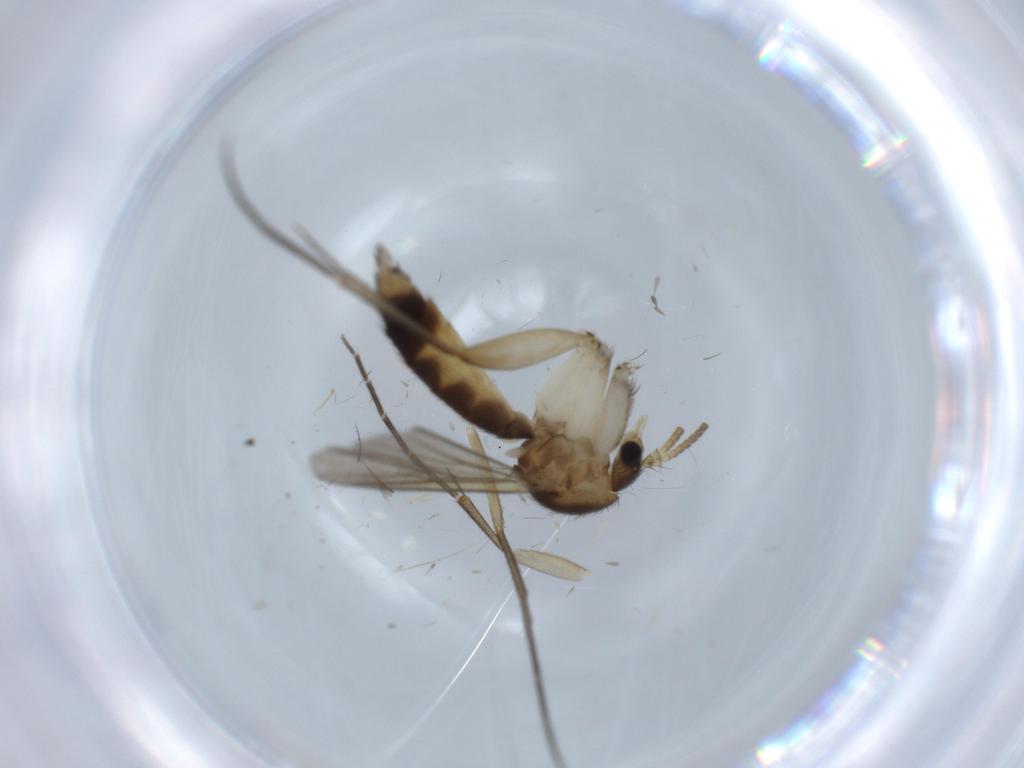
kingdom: Animalia
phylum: Arthropoda
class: Insecta
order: Diptera
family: Mycetophilidae
